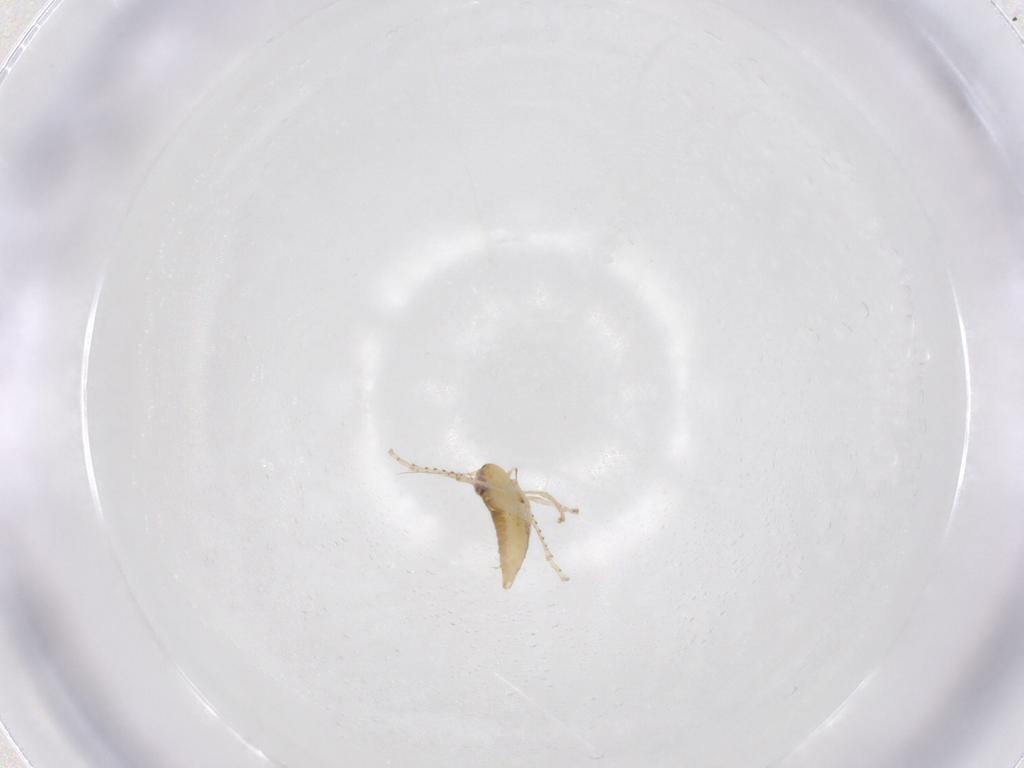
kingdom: Animalia
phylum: Arthropoda
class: Insecta
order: Hemiptera
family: Cicadellidae
